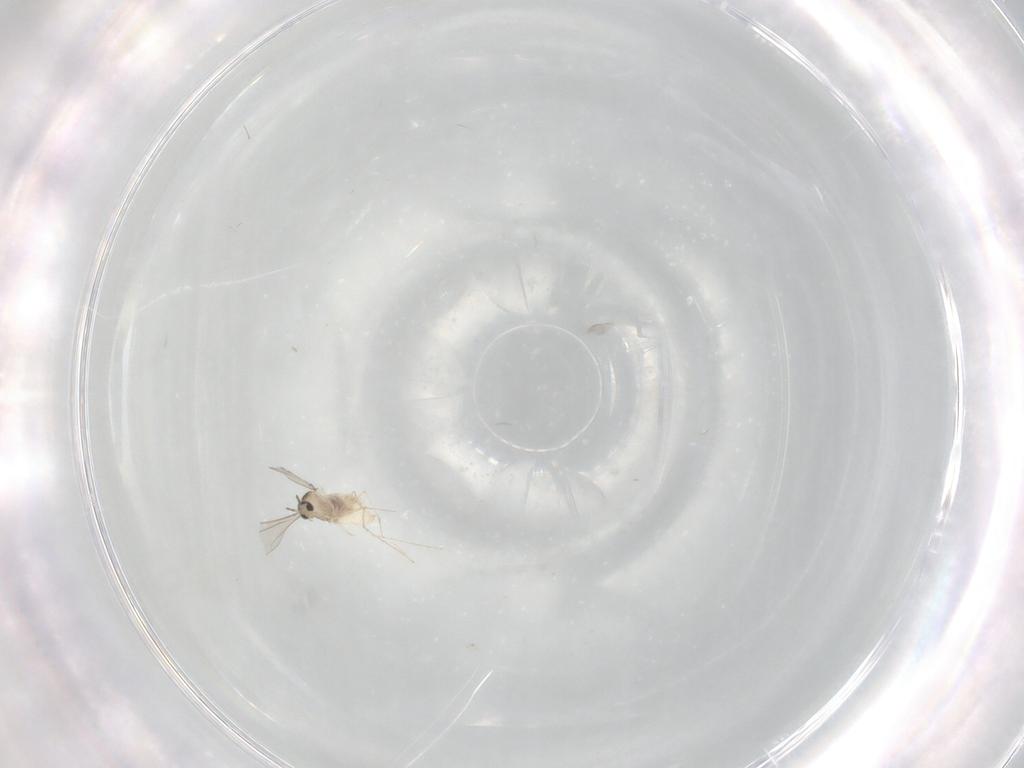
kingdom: Animalia
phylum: Arthropoda
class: Insecta
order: Diptera
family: Cecidomyiidae
